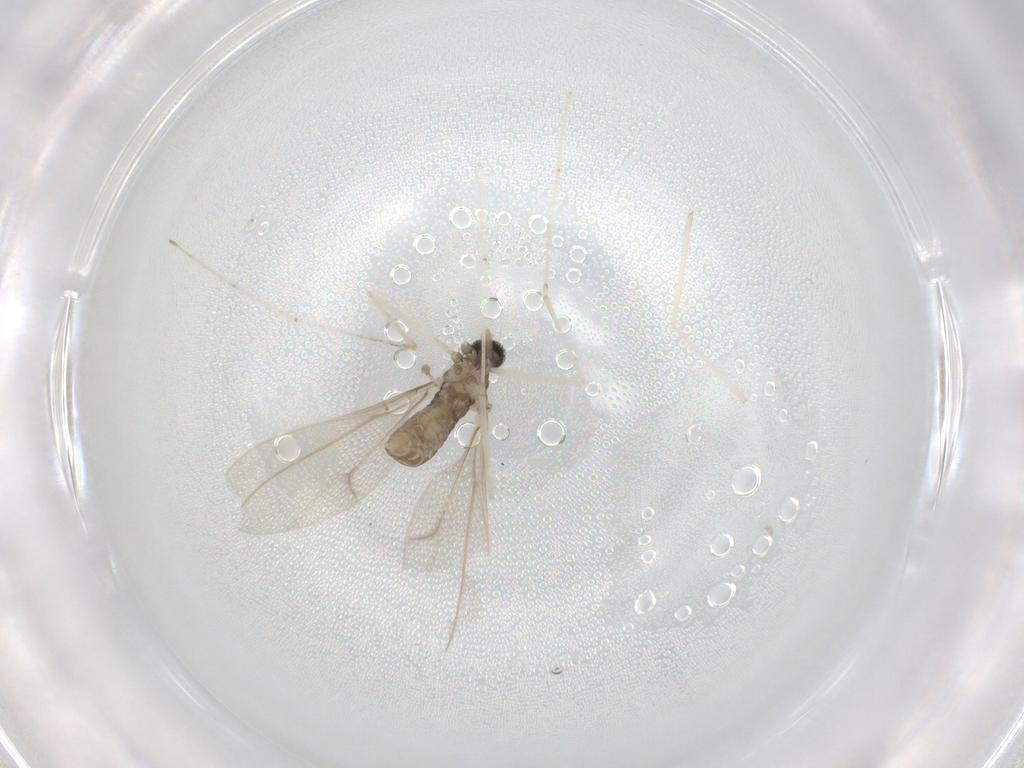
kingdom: Animalia
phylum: Arthropoda
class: Insecta
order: Diptera
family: Cecidomyiidae
